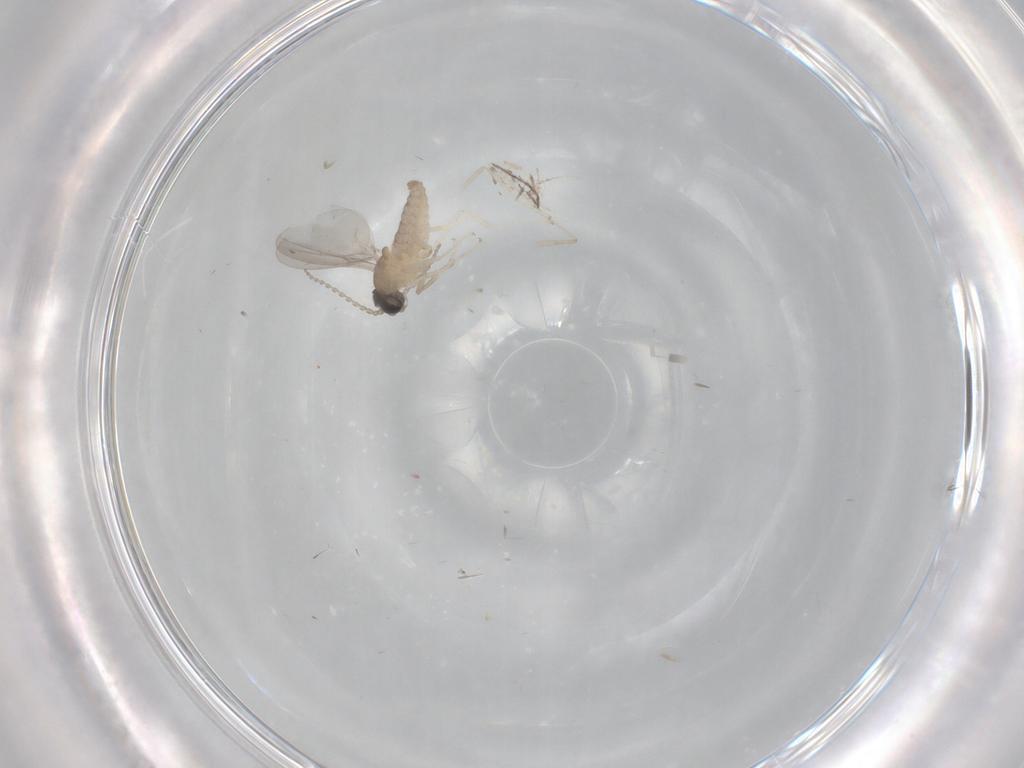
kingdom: Animalia
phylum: Arthropoda
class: Insecta
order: Diptera
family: Cecidomyiidae
